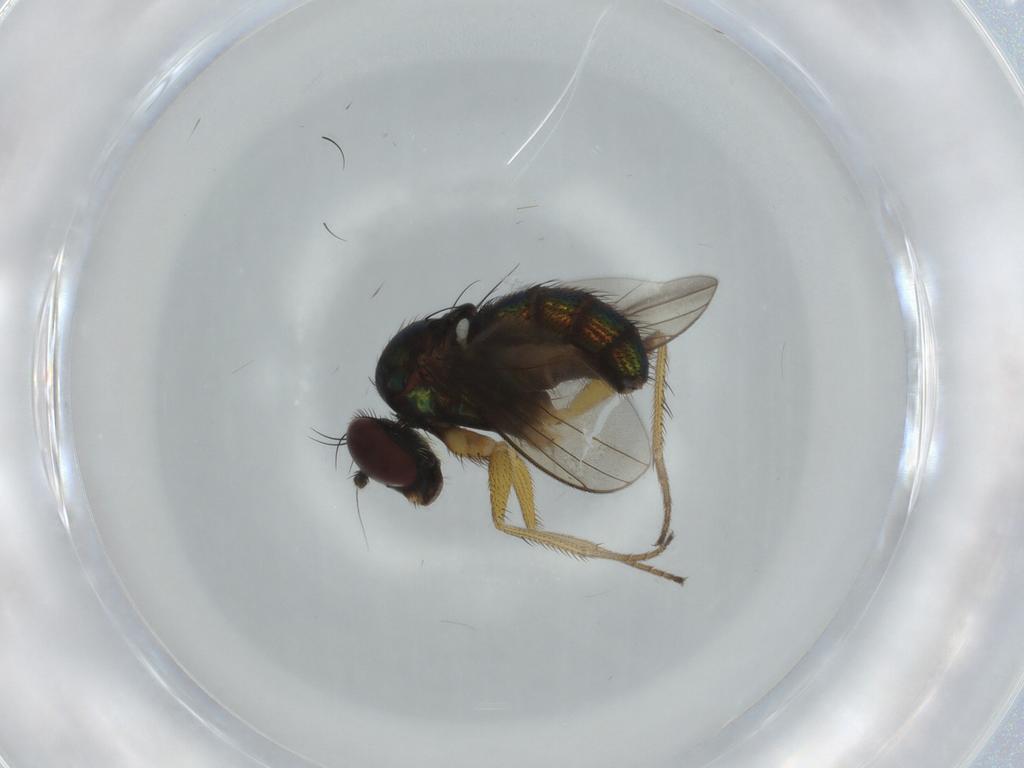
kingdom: Animalia
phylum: Arthropoda
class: Insecta
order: Diptera
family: Dolichopodidae
